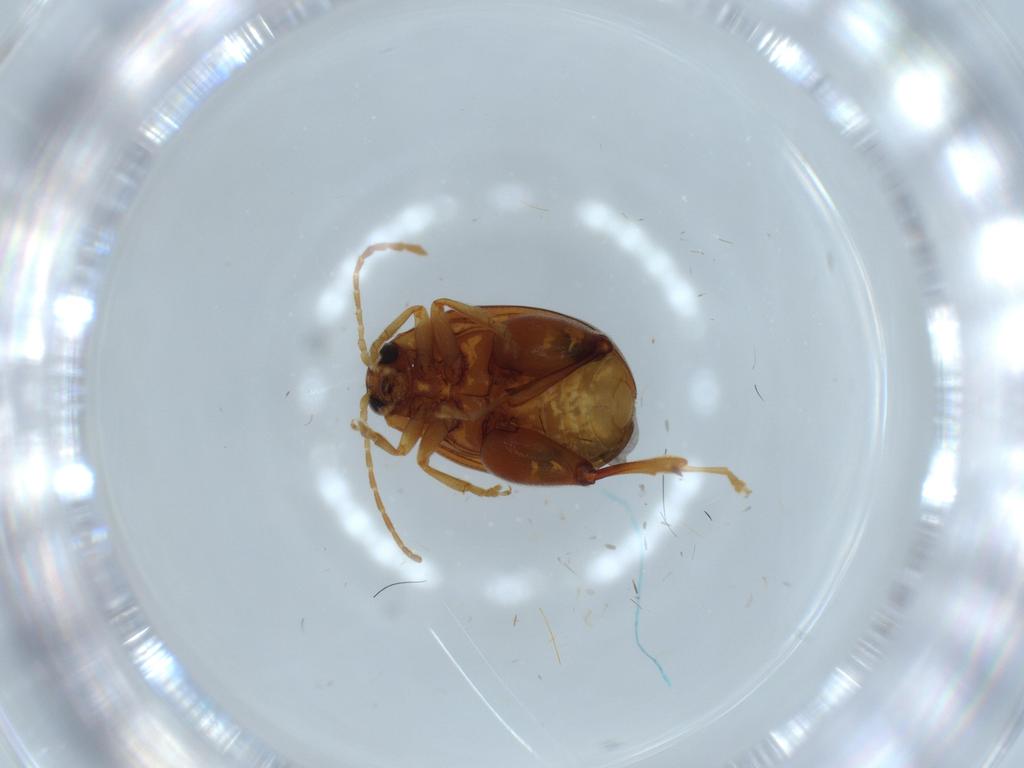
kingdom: Animalia
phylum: Arthropoda
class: Insecta
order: Coleoptera
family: Chrysomelidae
